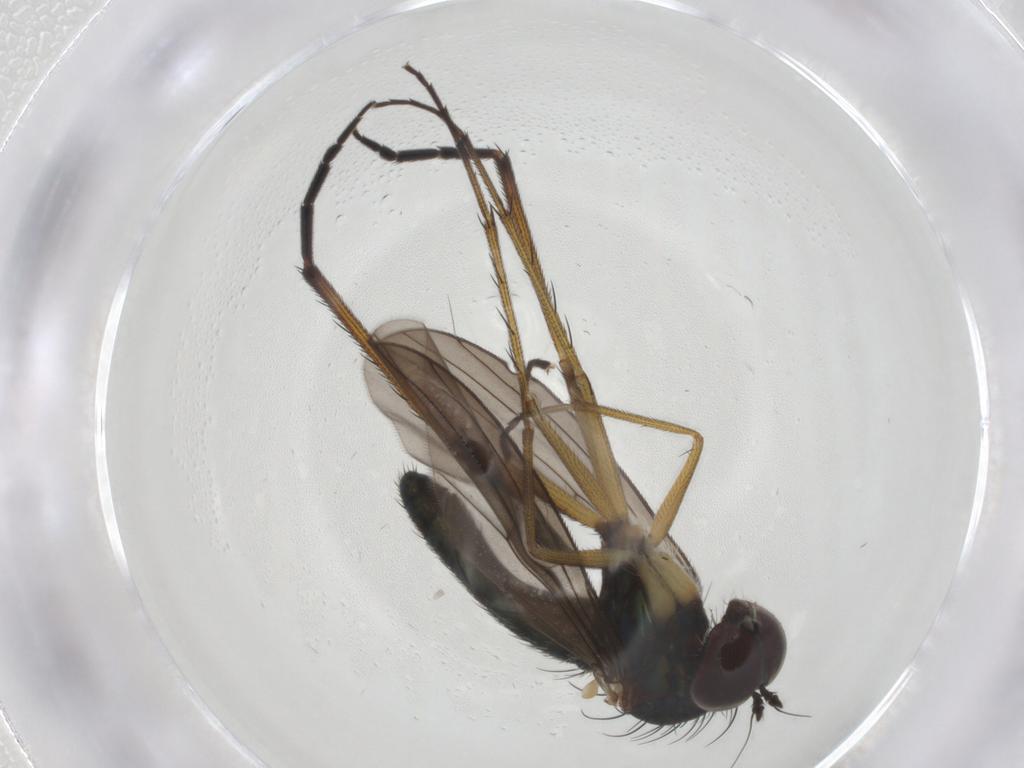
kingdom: Animalia
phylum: Arthropoda
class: Insecta
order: Diptera
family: Dolichopodidae
